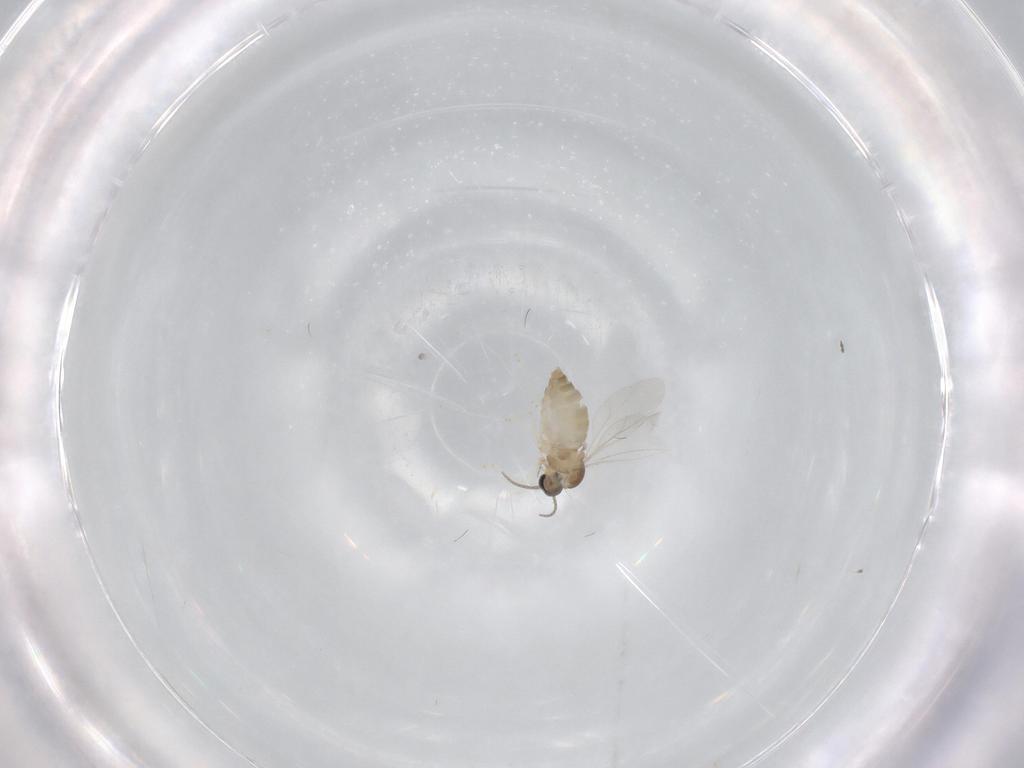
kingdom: Animalia
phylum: Arthropoda
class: Insecta
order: Diptera
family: Cecidomyiidae
